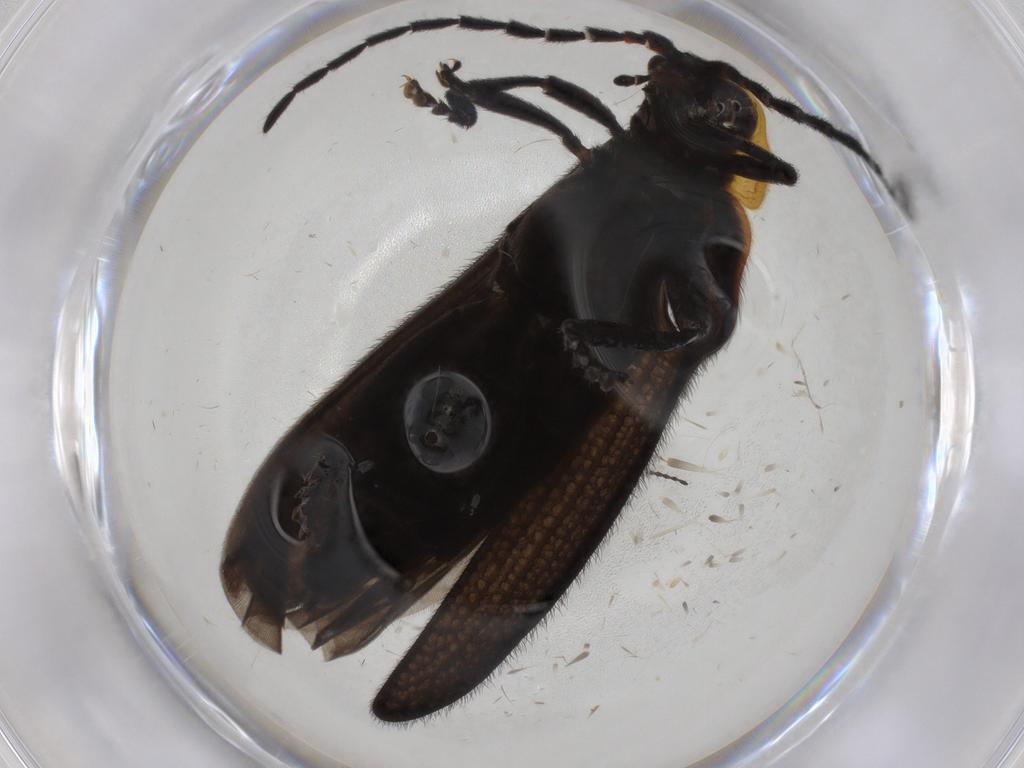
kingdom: Animalia
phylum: Arthropoda
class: Insecta
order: Coleoptera
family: Lycidae
